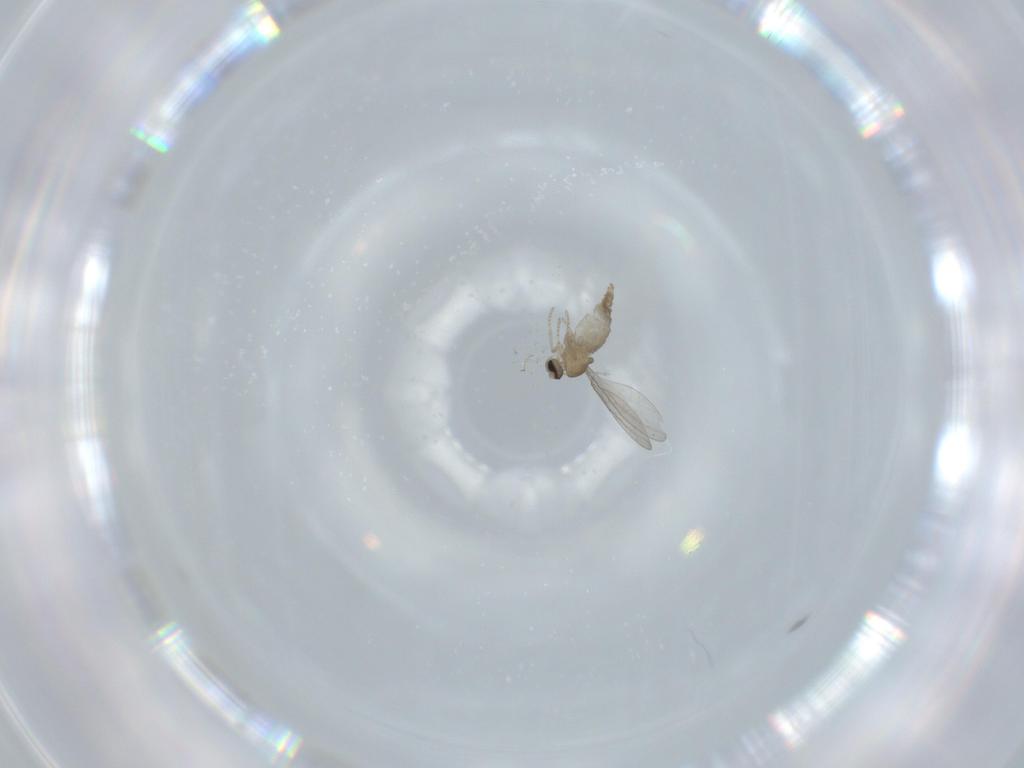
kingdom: Animalia
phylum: Arthropoda
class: Insecta
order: Diptera
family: Cecidomyiidae
